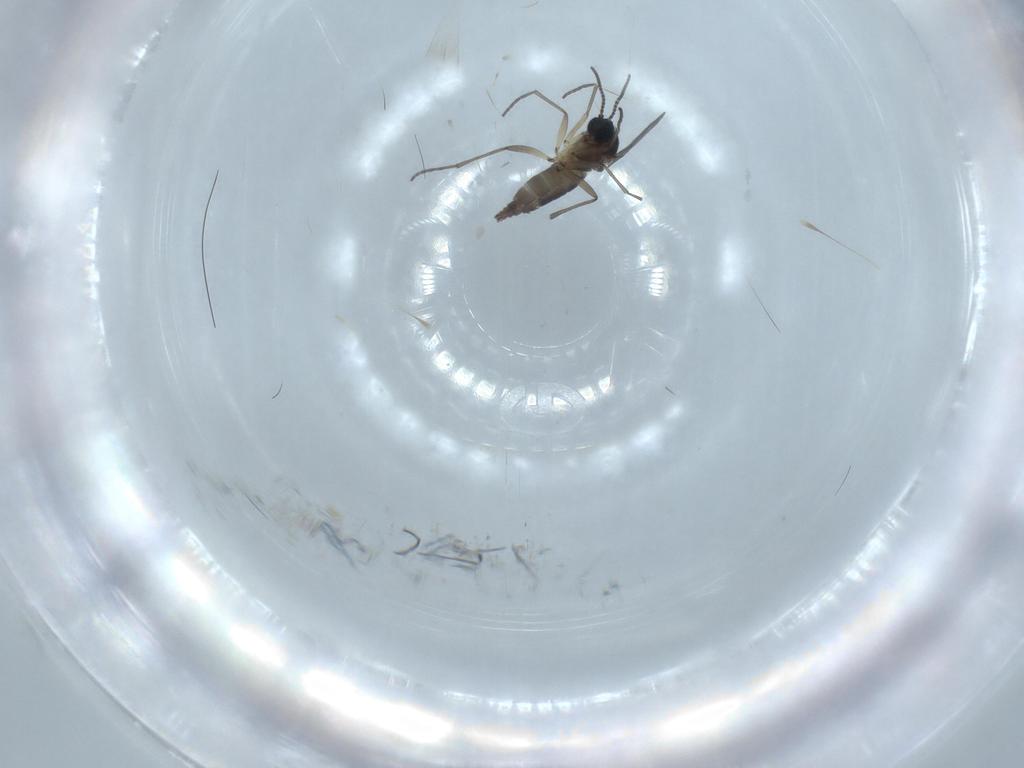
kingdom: Animalia
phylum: Arthropoda
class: Insecta
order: Diptera
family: Sciaridae
